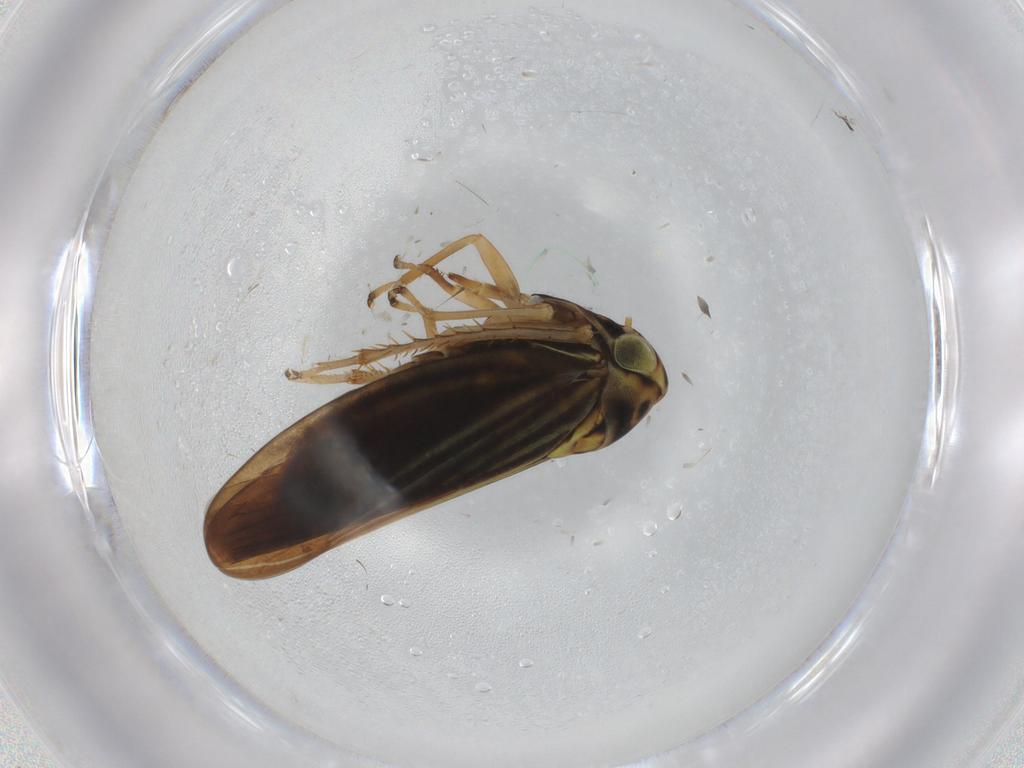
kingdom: Animalia
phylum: Arthropoda
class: Insecta
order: Hemiptera
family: Cicadellidae
